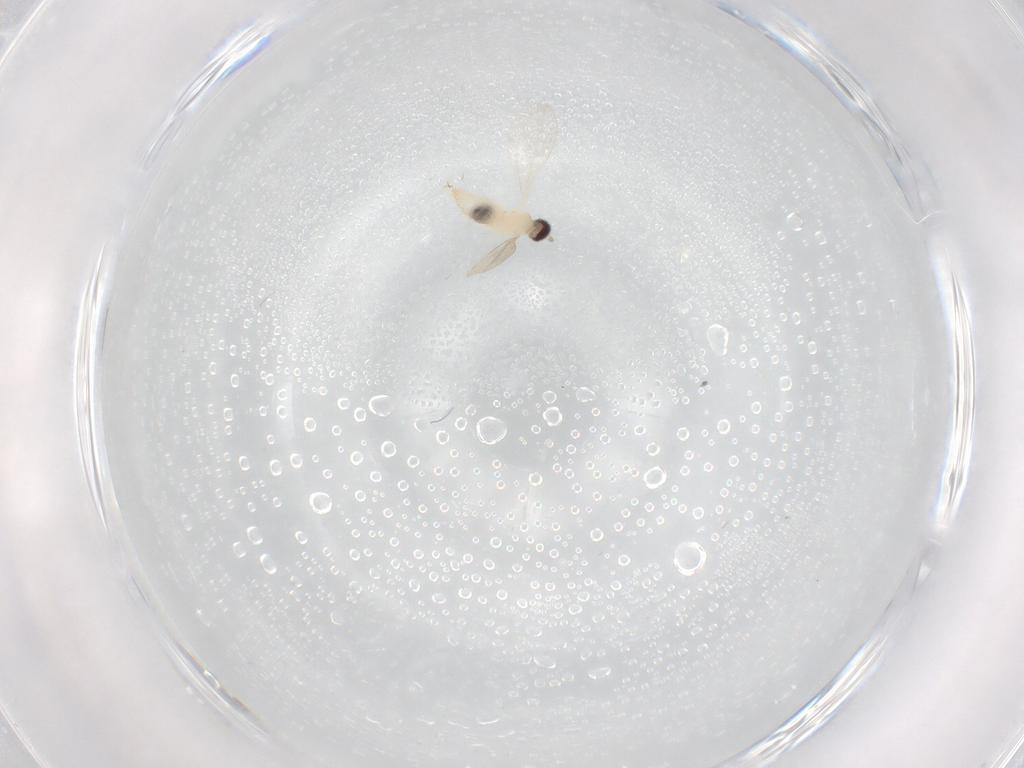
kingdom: Animalia
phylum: Arthropoda
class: Insecta
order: Diptera
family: Cecidomyiidae
